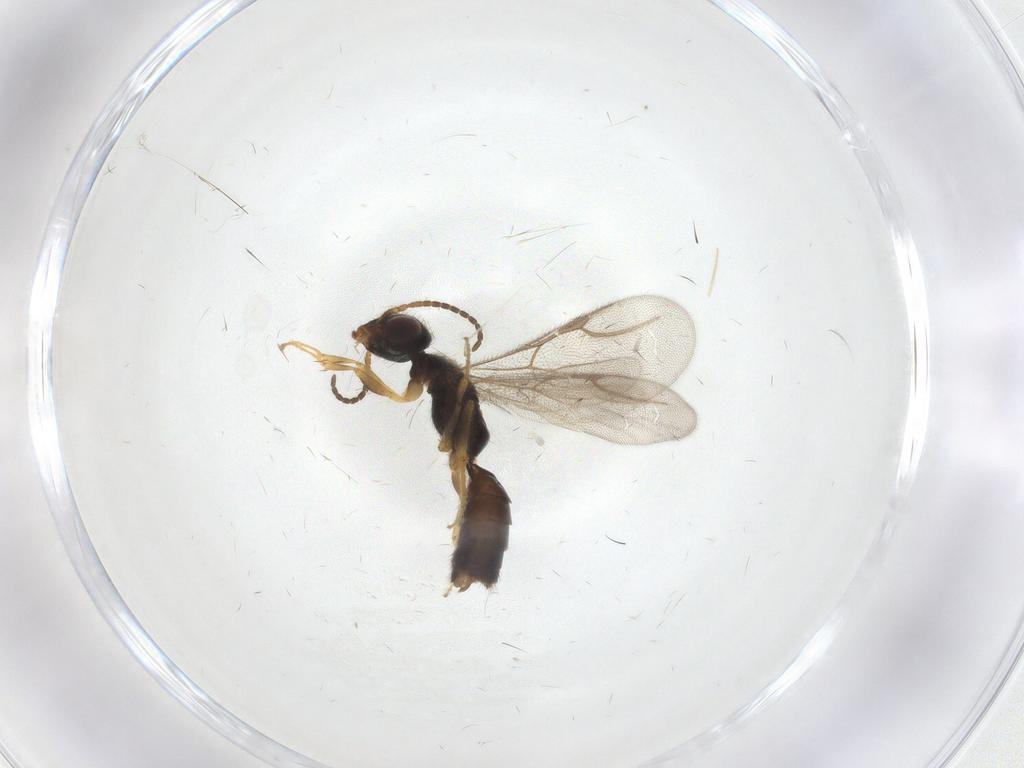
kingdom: Animalia
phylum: Arthropoda
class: Insecta
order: Hymenoptera
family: Bethylidae
